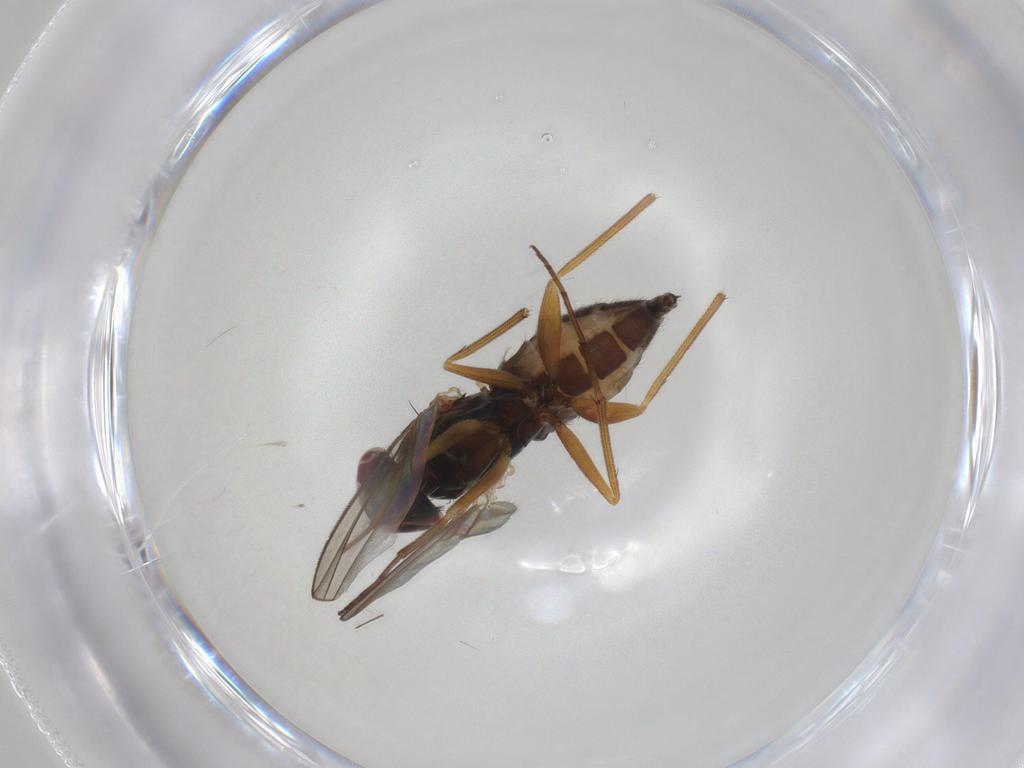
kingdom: Animalia
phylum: Arthropoda
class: Insecta
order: Diptera
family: Dolichopodidae
